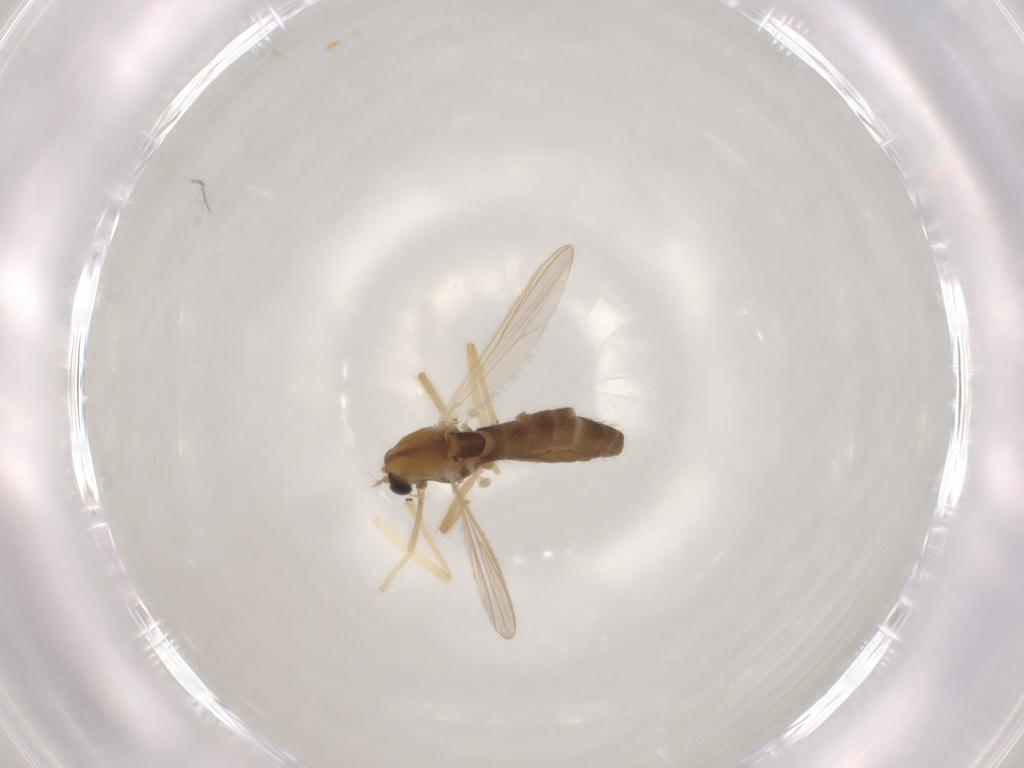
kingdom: Animalia
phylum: Arthropoda
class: Insecta
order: Diptera
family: Chironomidae
